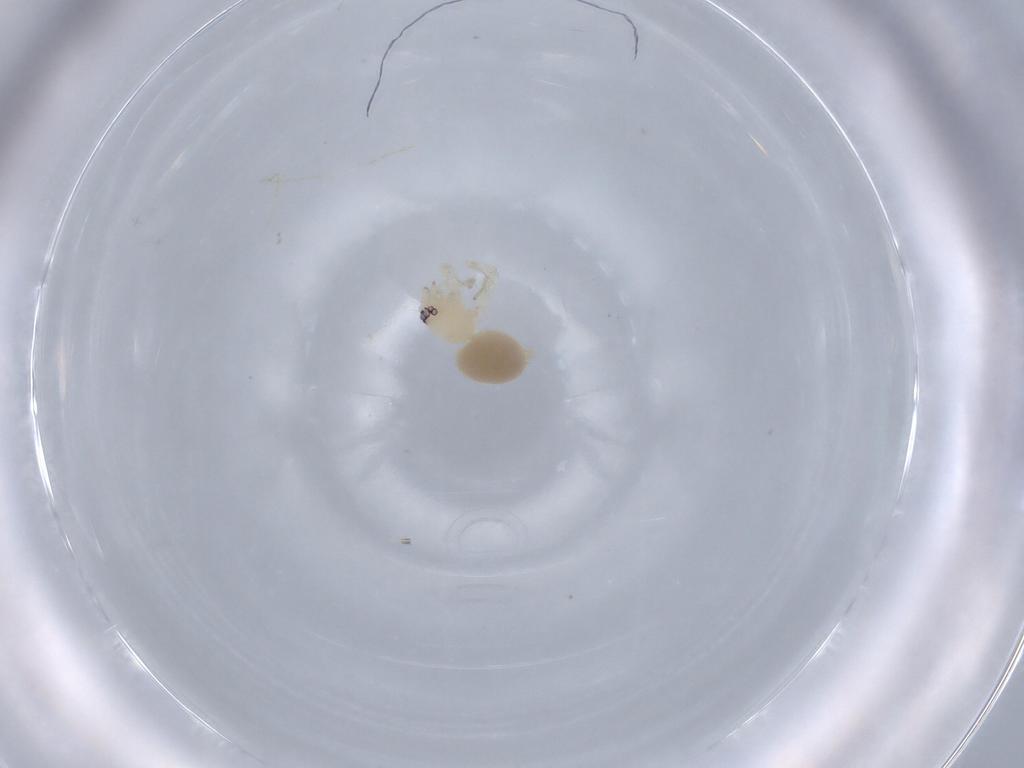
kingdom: Animalia
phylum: Arthropoda
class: Arachnida
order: Araneae
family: Oonopidae
